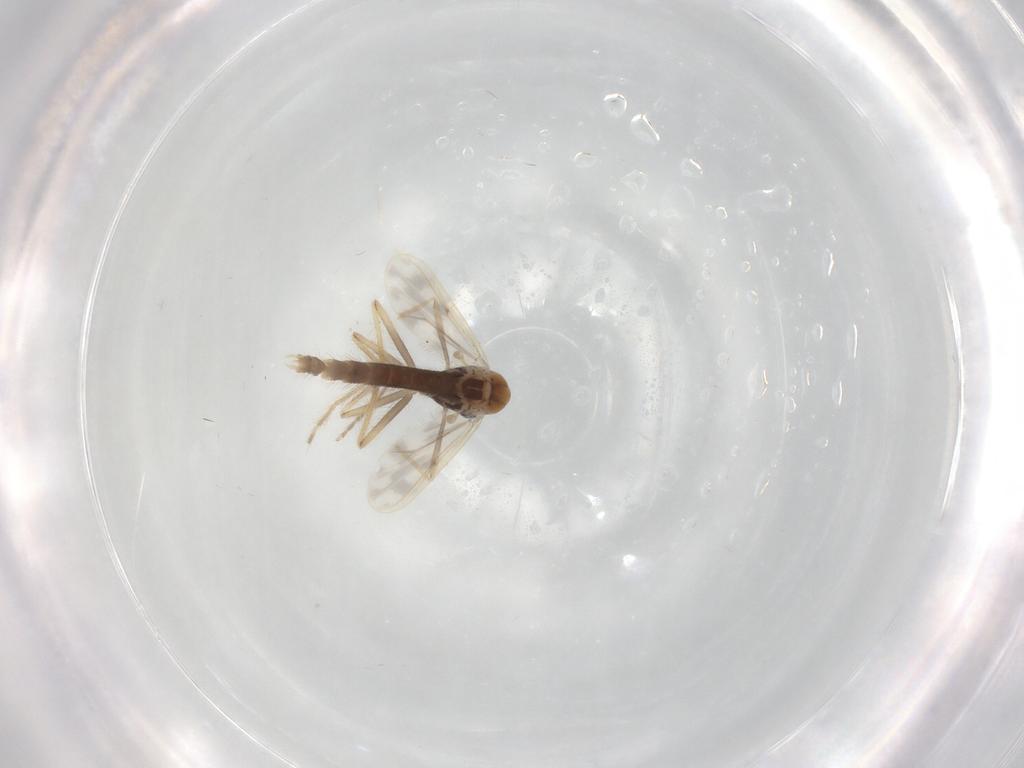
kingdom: Animalia
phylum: Arthropoda
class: Insecta
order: Diptera
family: Chironomidae
